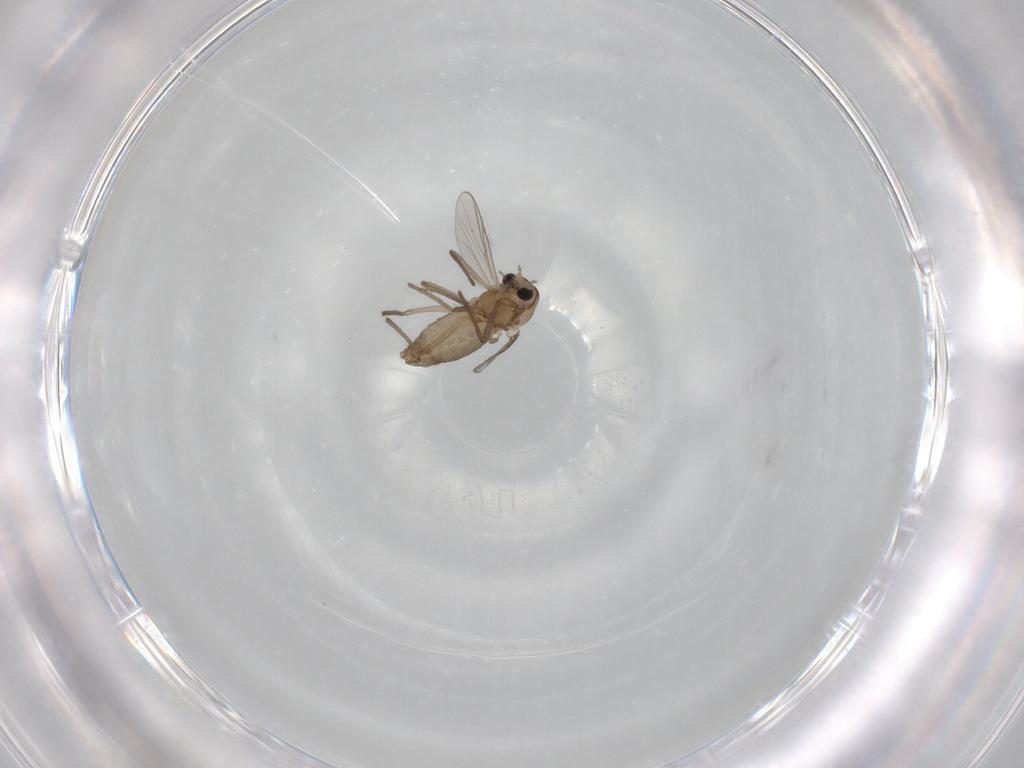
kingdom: Animalia
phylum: Arthropoda
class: Insecta
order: Diptera
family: Chironomidae
